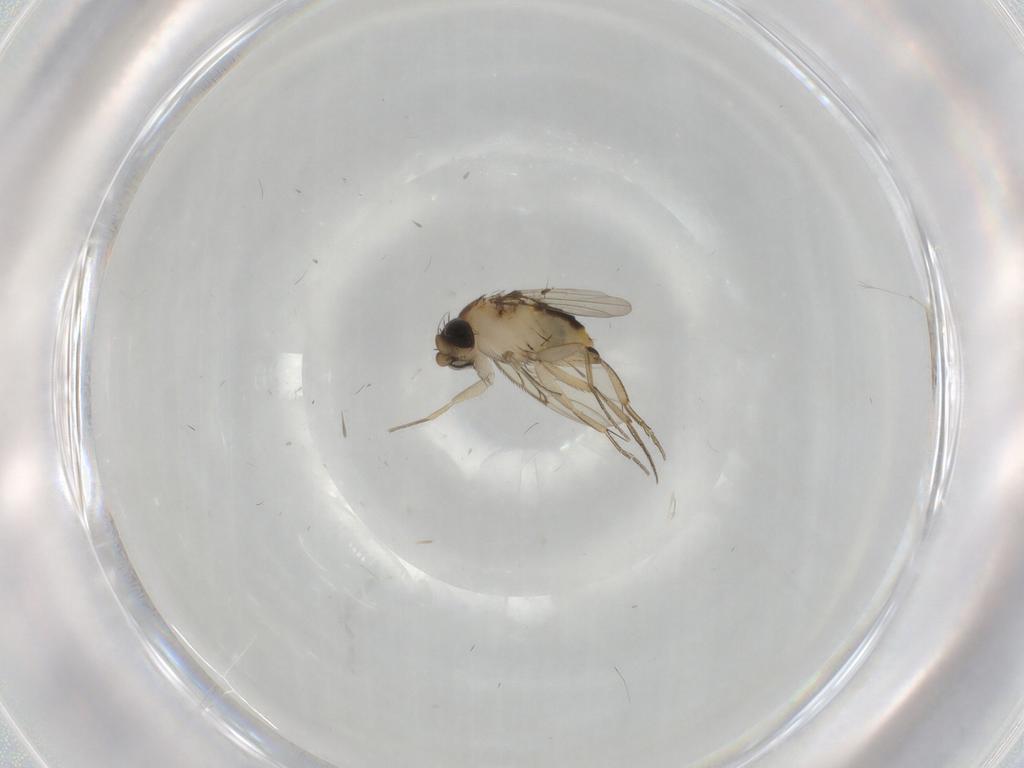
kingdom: Animalia
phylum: Arthropoda
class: Insecta
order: Diptera
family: Phoridae
